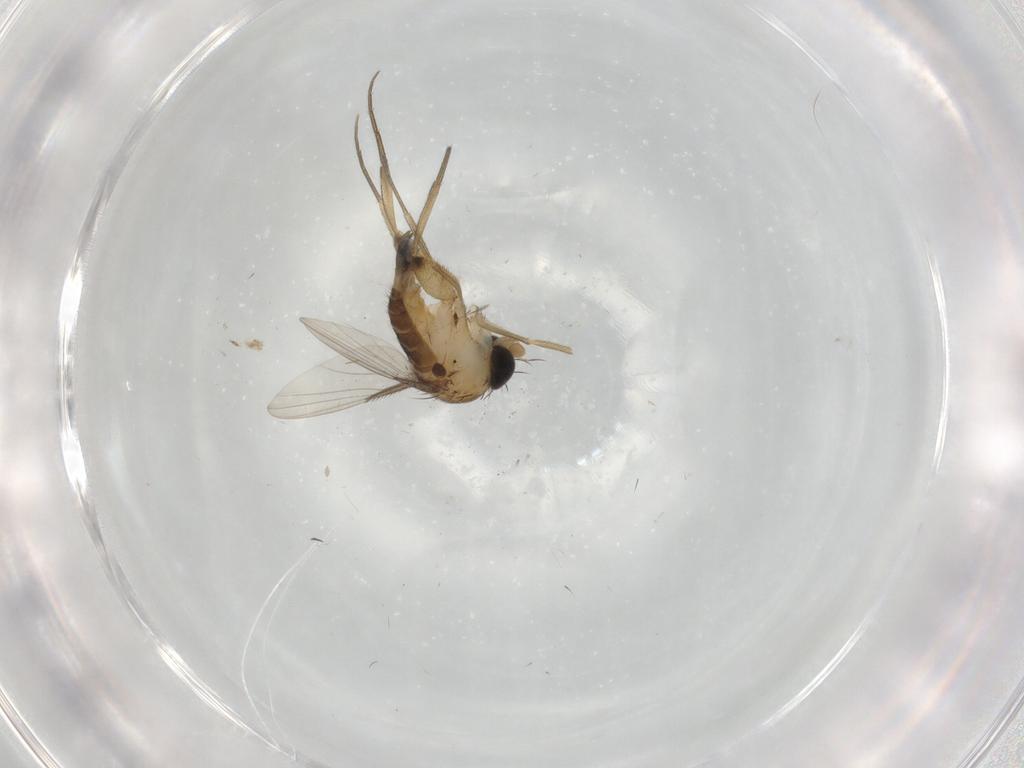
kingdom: Animalia
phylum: Arthropoda
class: Insecta
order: Diptera
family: Phoridae
